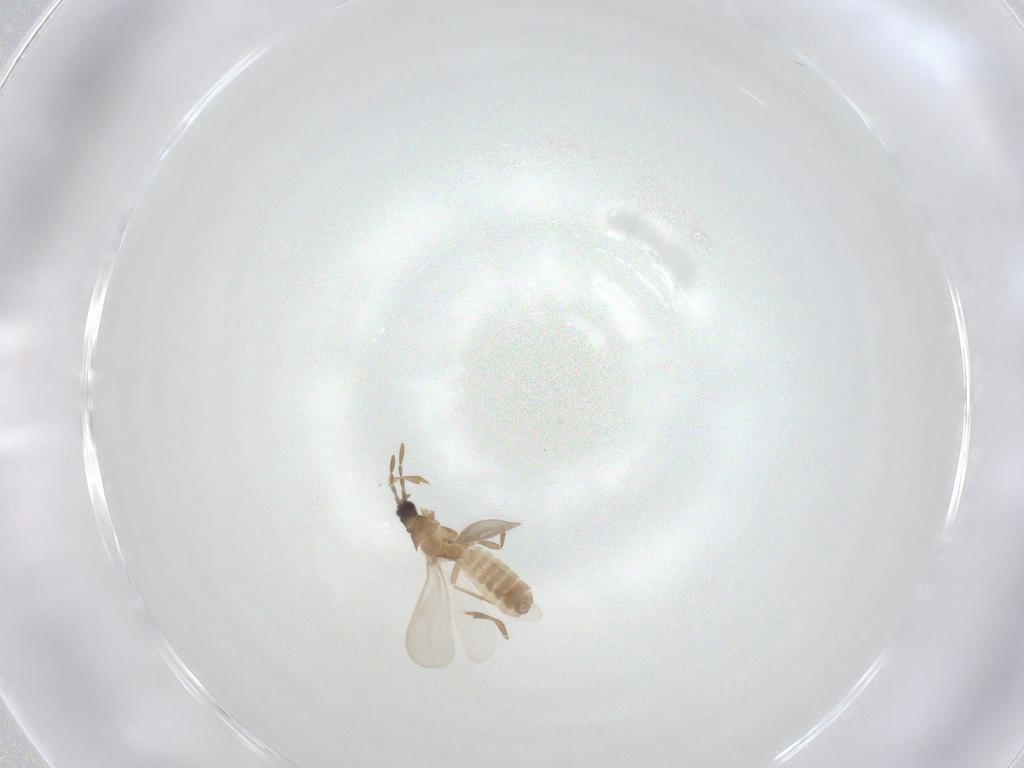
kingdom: Animalia
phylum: Arthropoda
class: Insecta
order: Hemiptera
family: Enicocephalidae
